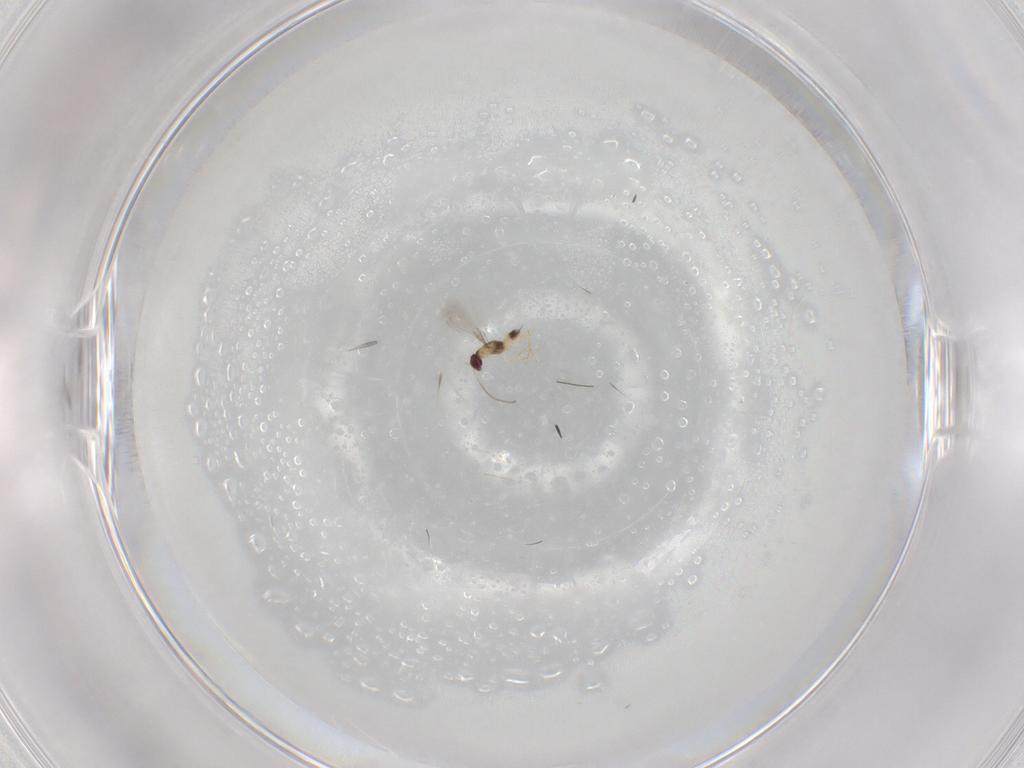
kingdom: Animalia
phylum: Arthropoda
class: Insecta
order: Hymenoptera
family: Mymaridae
